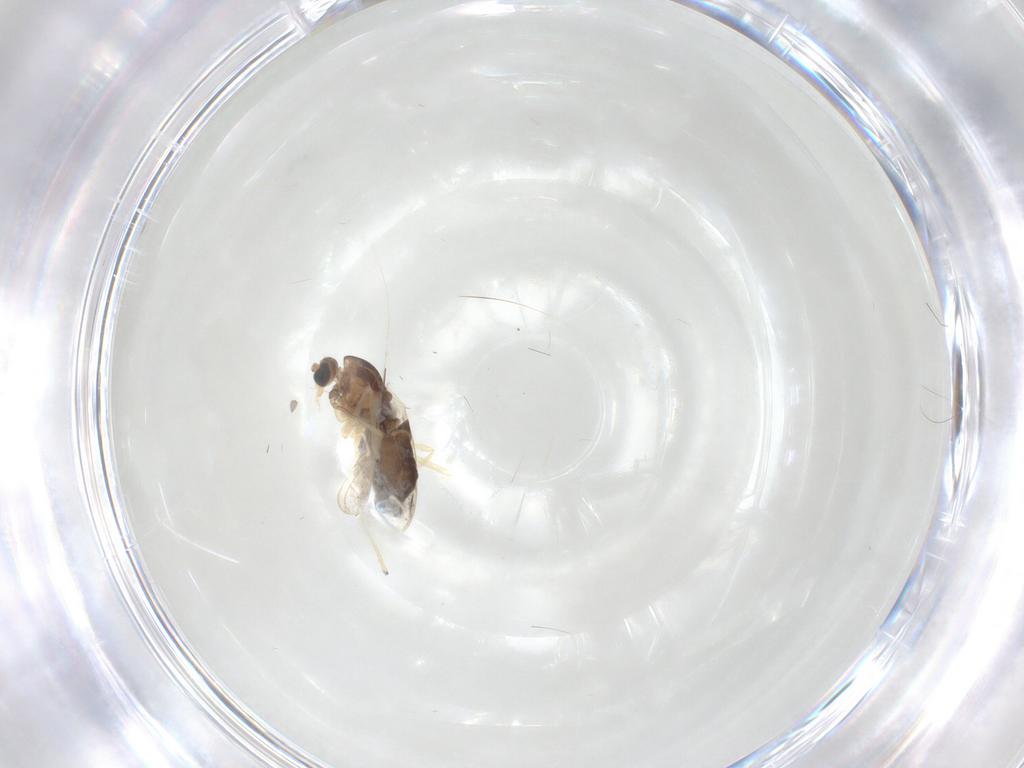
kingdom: Animalia
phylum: Arthropoda
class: Insecta
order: Diptera
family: Chironomidae
